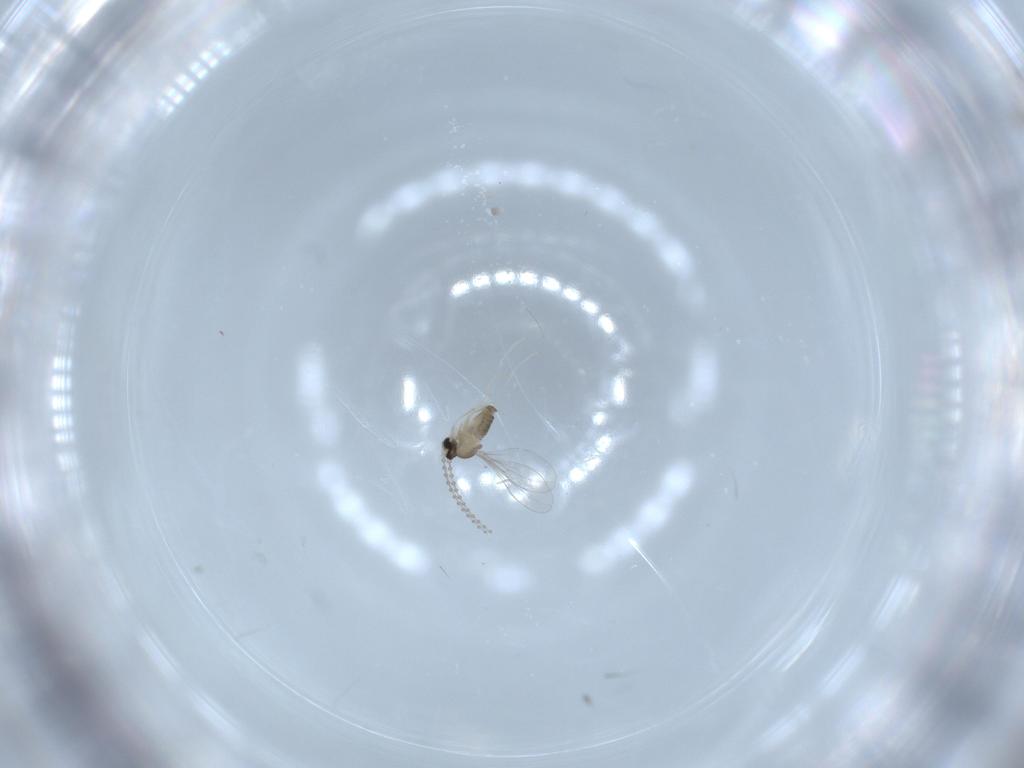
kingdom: Animalia
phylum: Arthropoda
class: Insecta
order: Diptera
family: Cecidomyiidae
